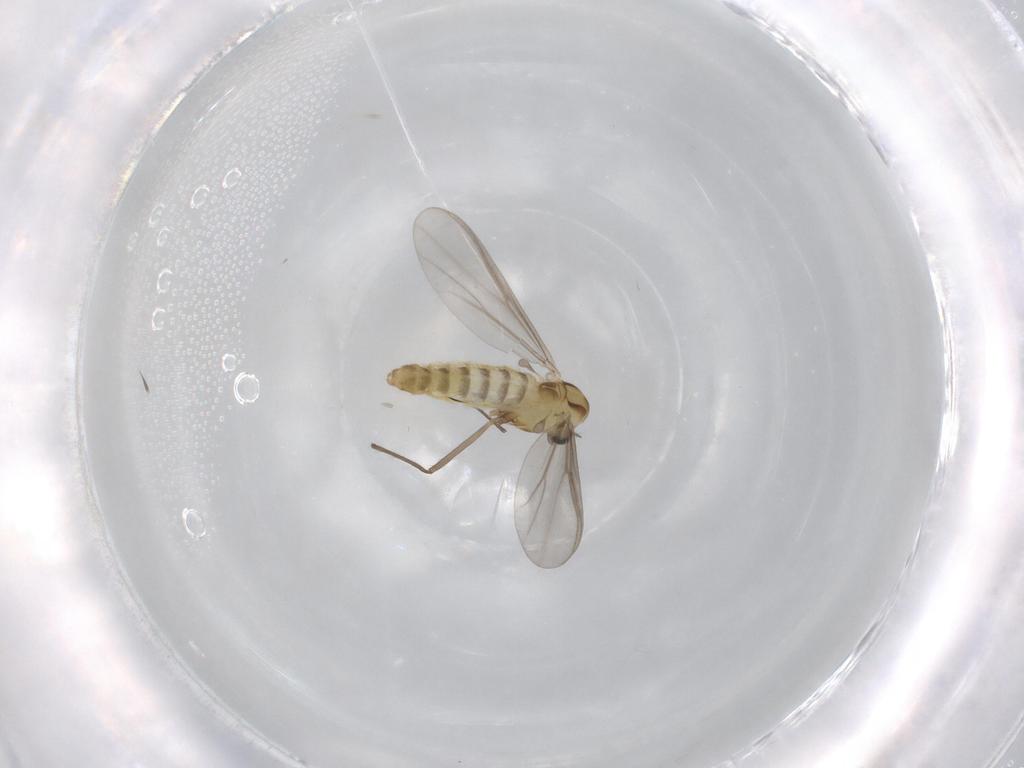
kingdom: Animalia
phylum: Arthropoda
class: Insecta
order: Diptera
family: Chironomidae
